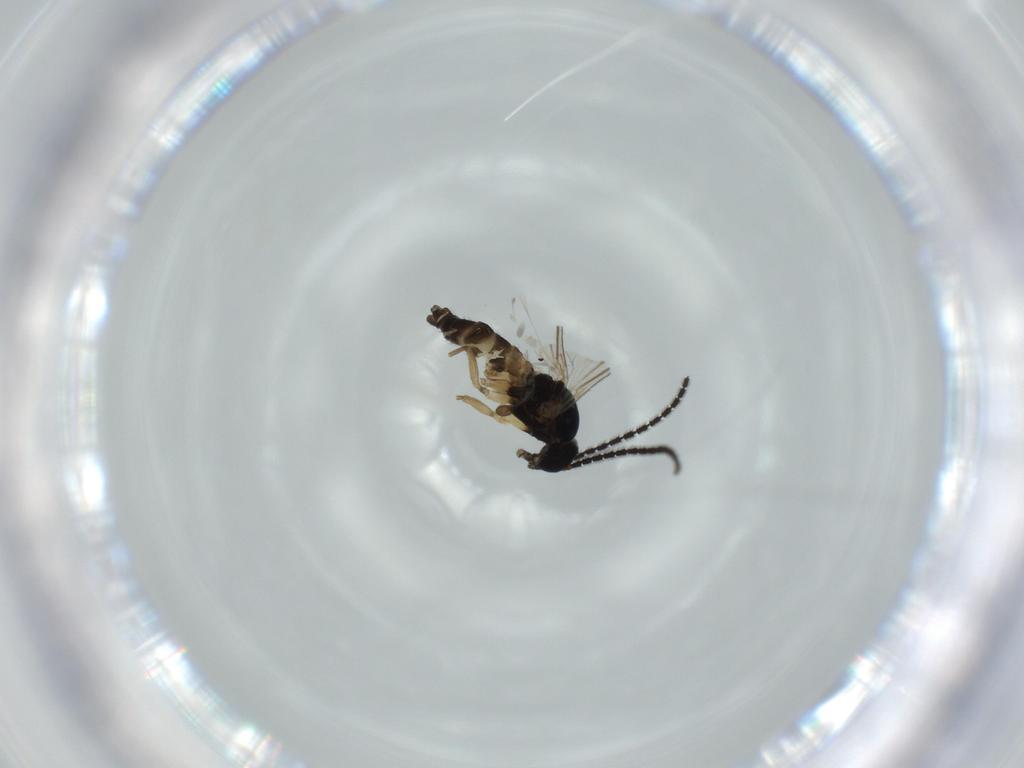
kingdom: Animalia
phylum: Arthropoda
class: Insecta
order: Diptera
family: Sciaridae
